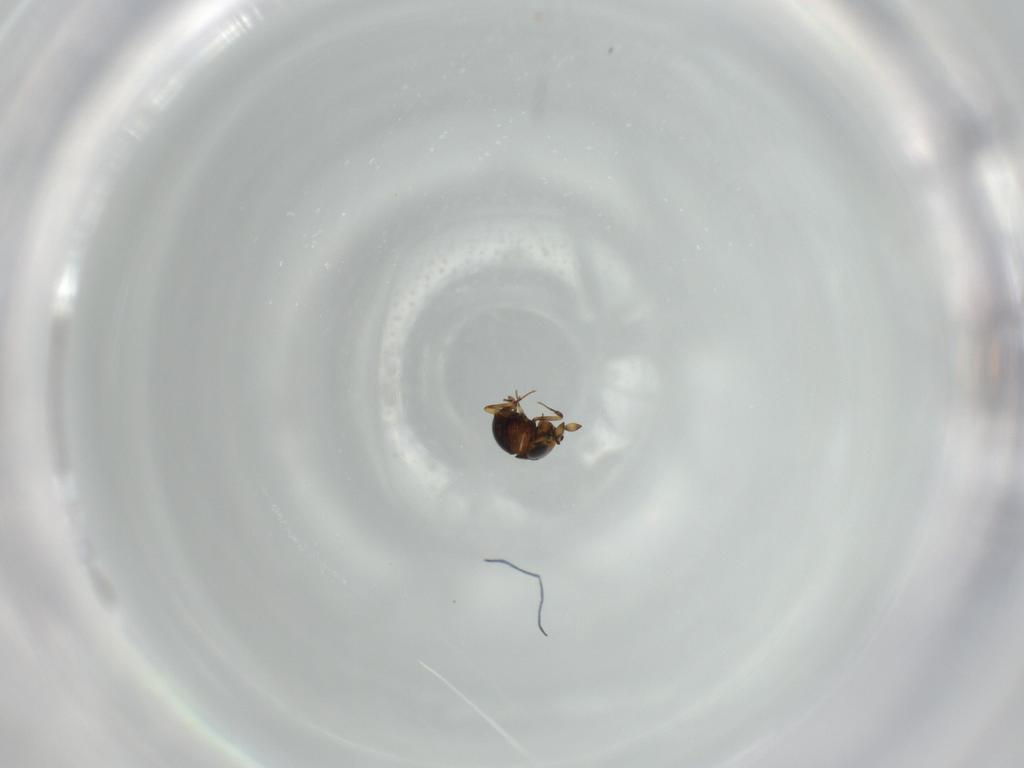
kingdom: Animalia
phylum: Arthropoda
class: Insecta
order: Hymenoptera
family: Scelionidae
